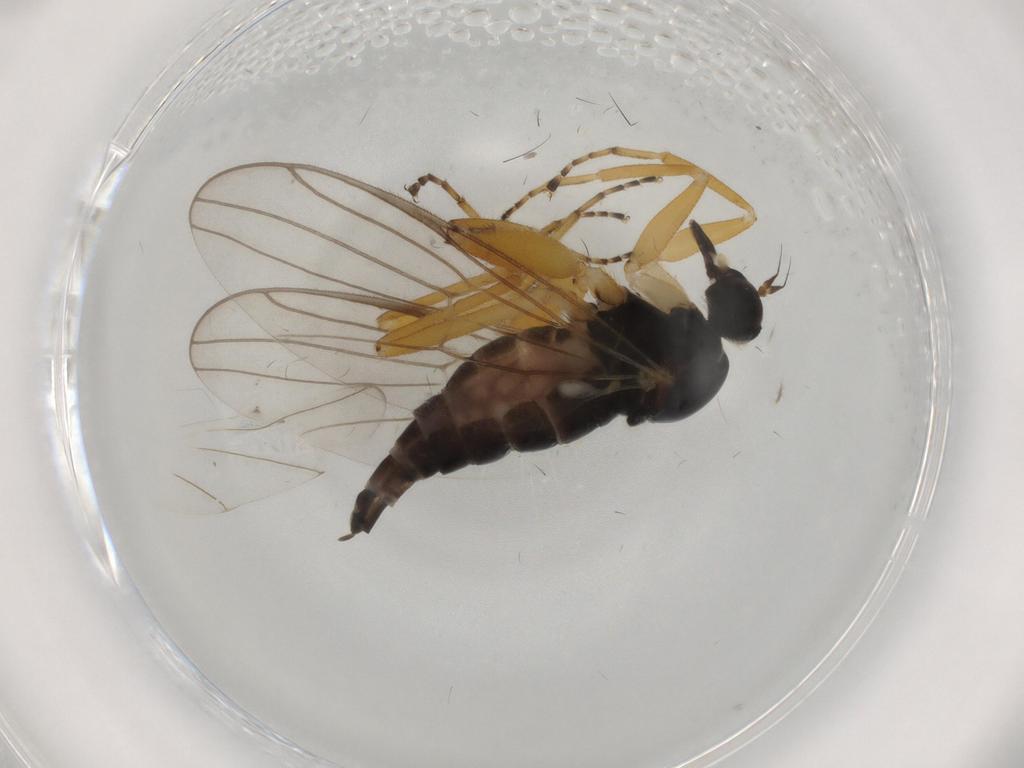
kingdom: Animalia
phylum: Arthropoda
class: Insecta
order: Diptera
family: Hybotidae
